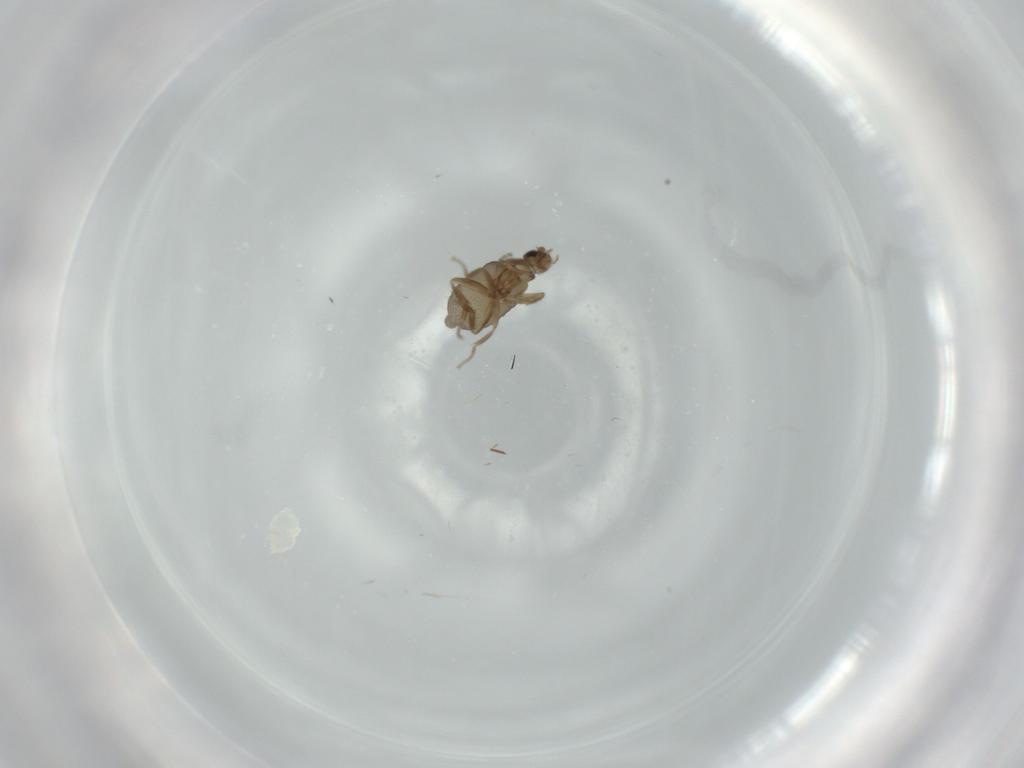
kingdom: Animalia
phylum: Arthropoda
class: Insecta
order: Diptera
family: Phoridae
